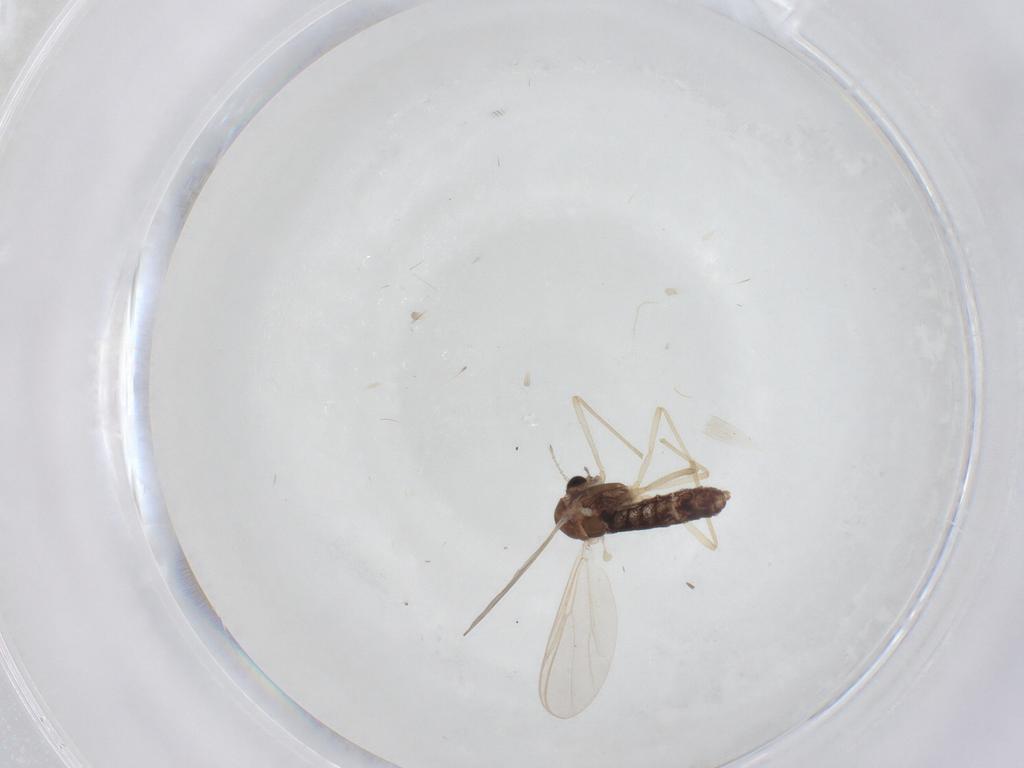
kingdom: Animalia
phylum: Arthropoda
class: Insecta
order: Diptera
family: Chironomidae
